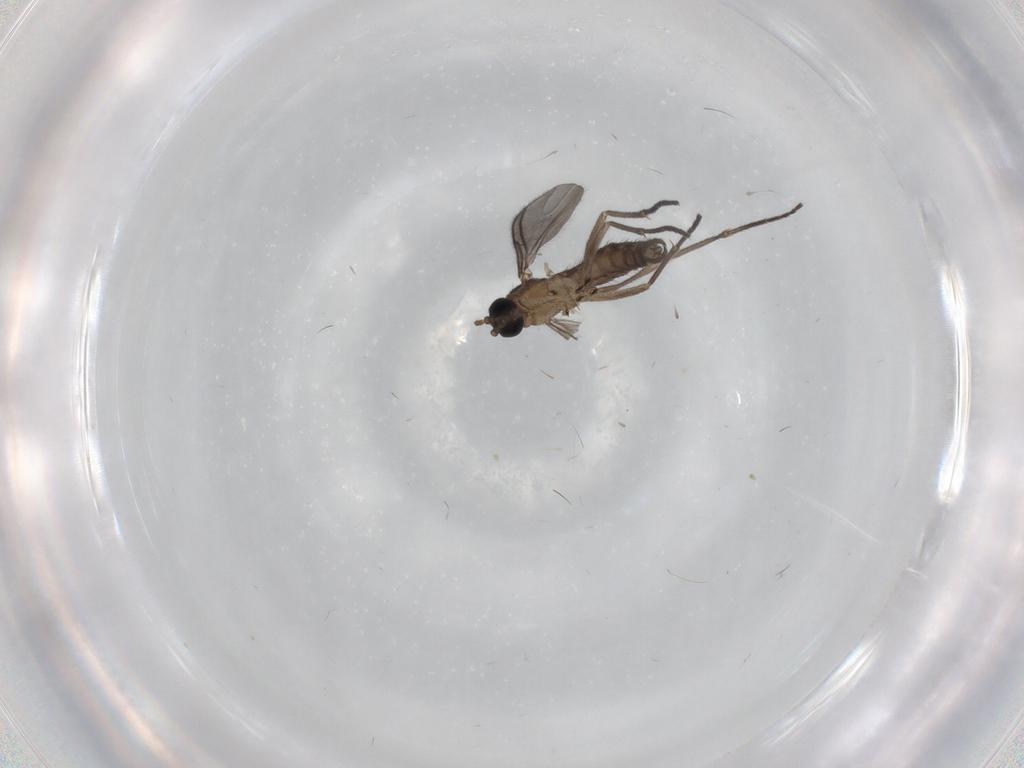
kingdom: Animalia
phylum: Arthropoda
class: Insecta
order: Diptera
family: Sciaridae
